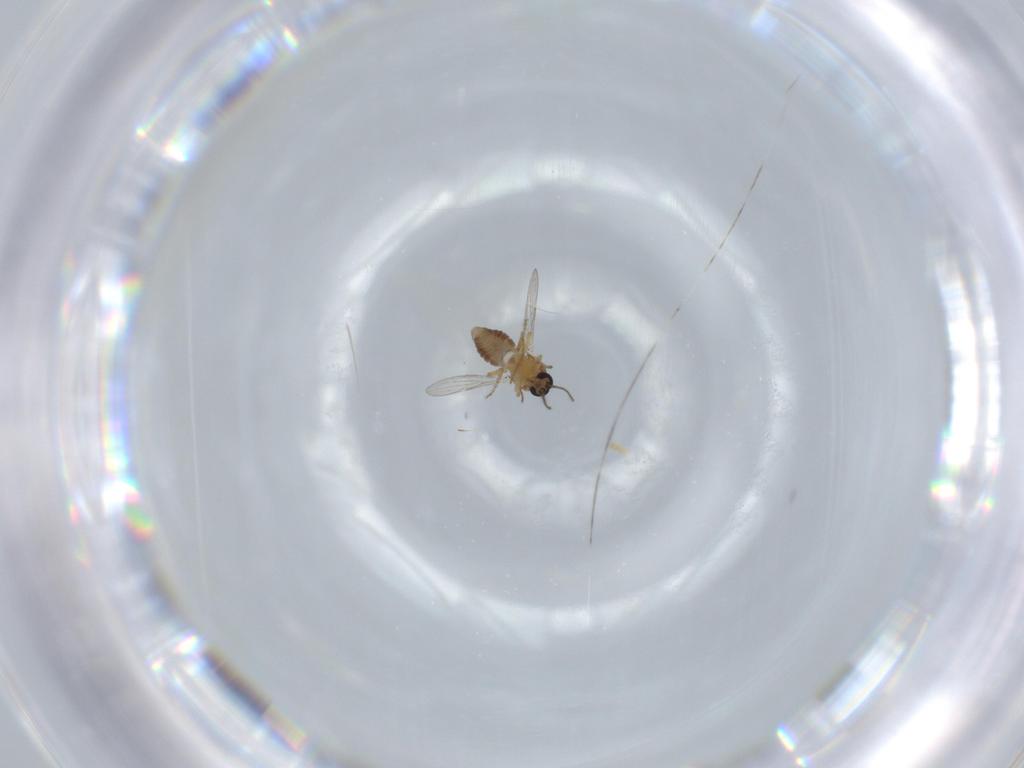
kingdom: Animalia
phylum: Arthropoda
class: Insecta
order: Diptera
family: Ceratopogonidae
